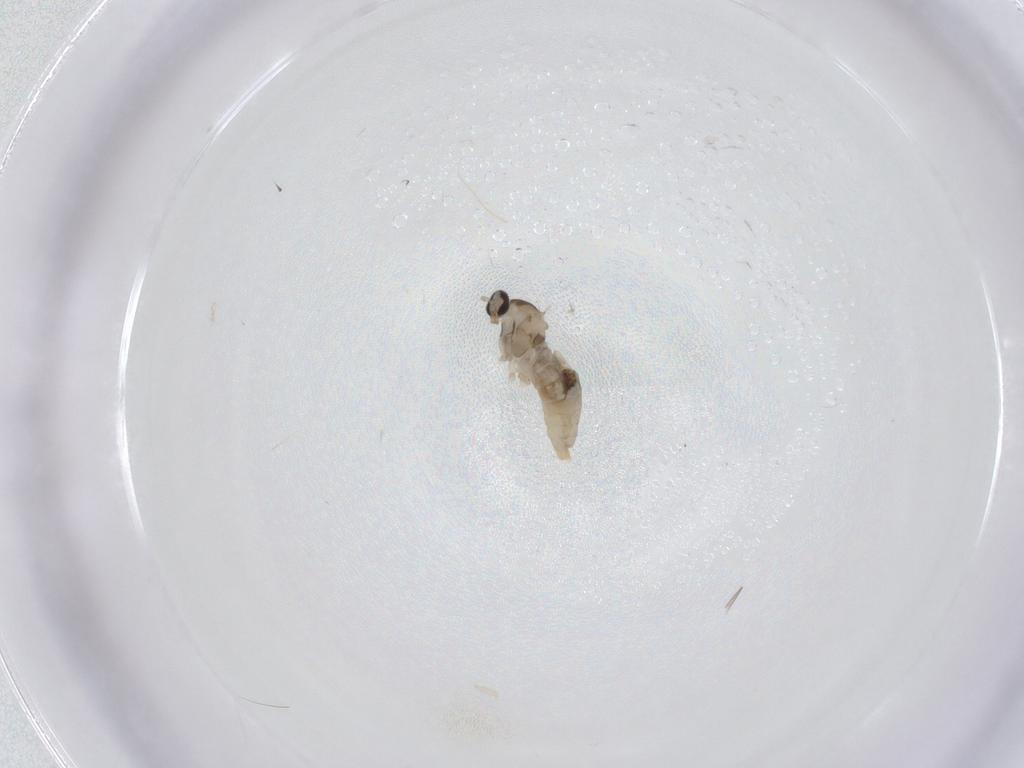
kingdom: Animalia
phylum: Arthropoda
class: Insecta
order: Diptera
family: Cecidomyiidae
